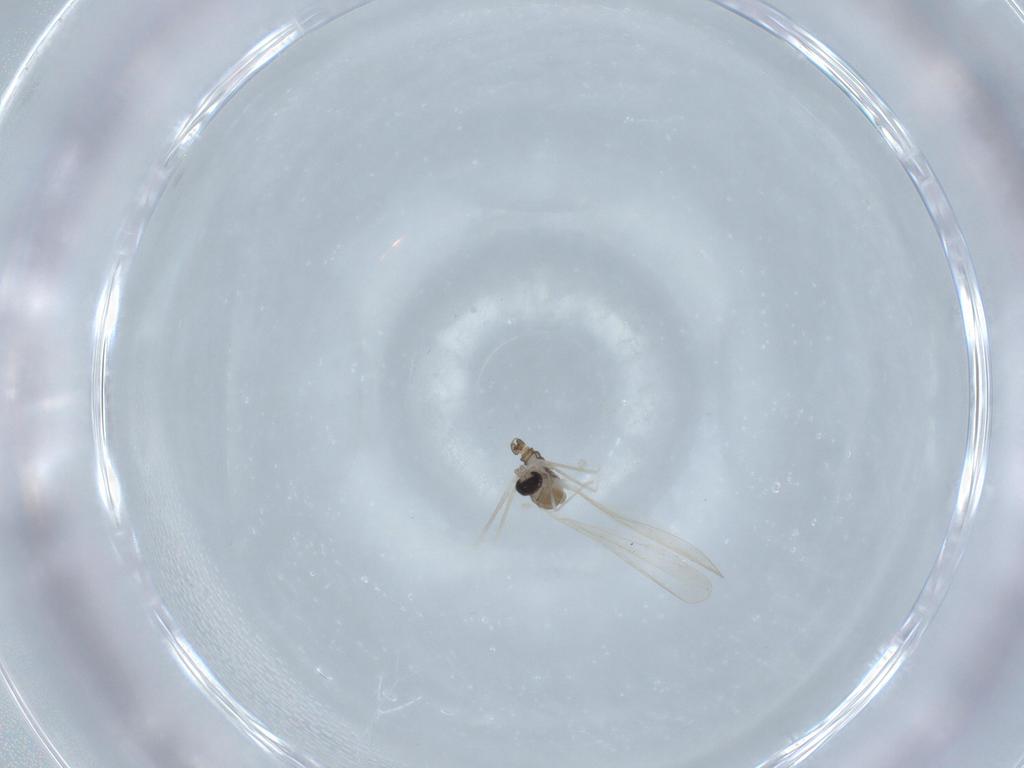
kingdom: Animalia
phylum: Arthropoda
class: Insecta
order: Diptera
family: Cecidomyiidae
